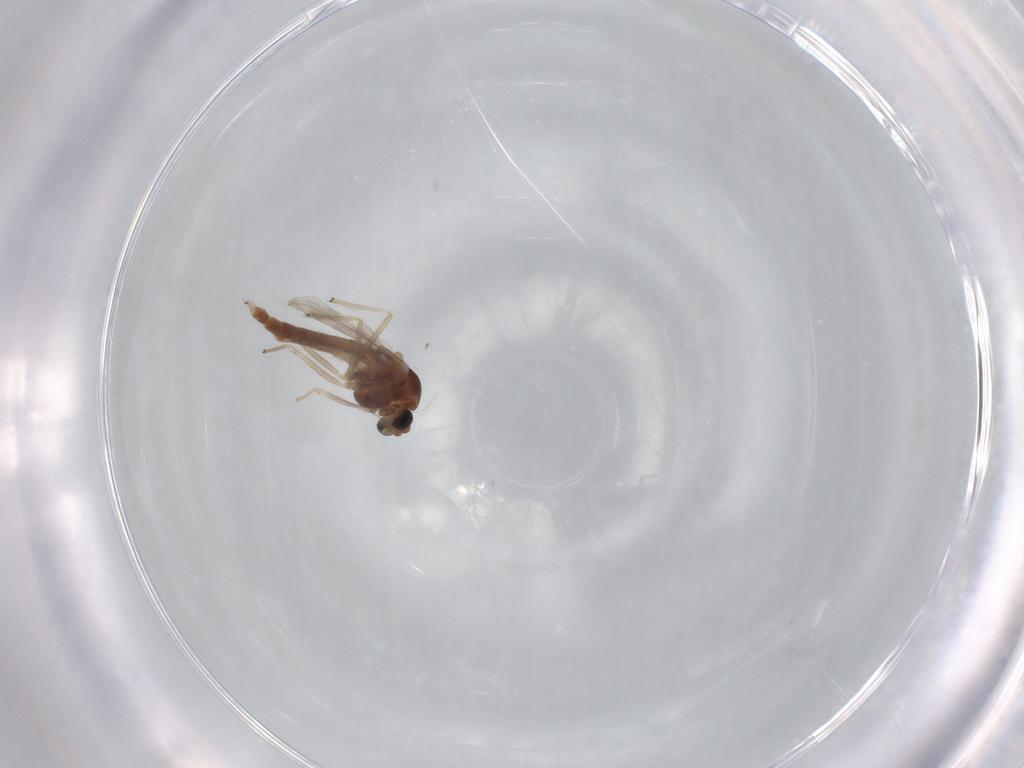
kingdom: Animalia
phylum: Arthropoda
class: Insecta
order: Diptera
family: Chironomidae
